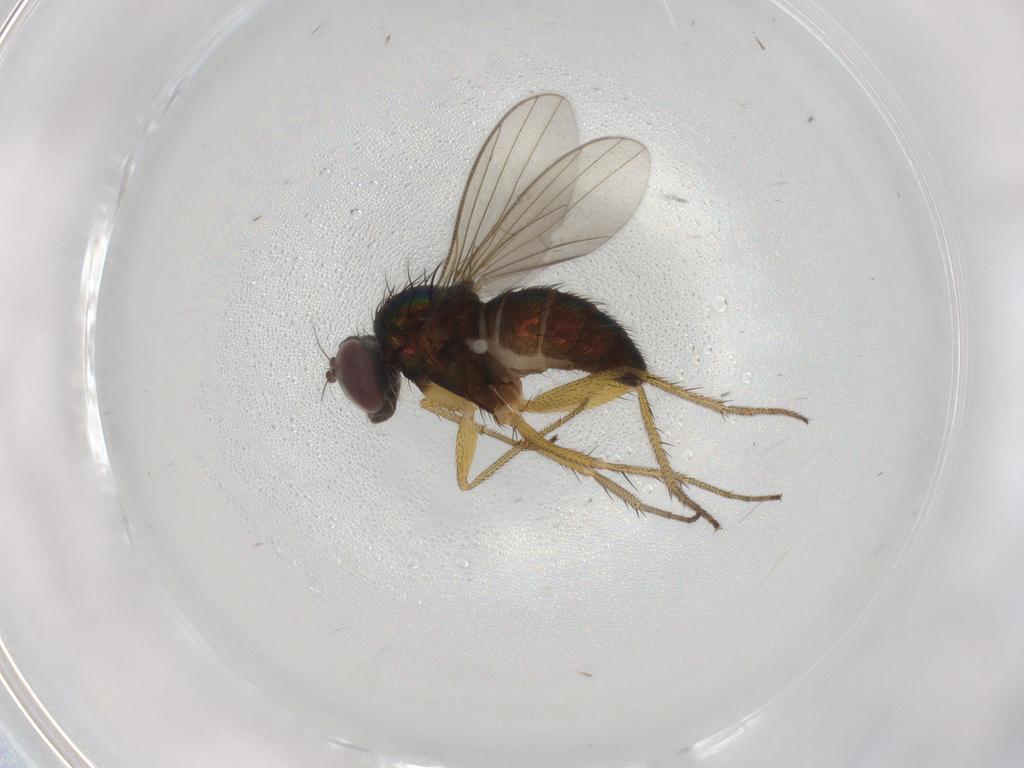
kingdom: Animalia
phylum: Arthropoda
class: Insecta
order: Diptera
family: Dolichopodidae
